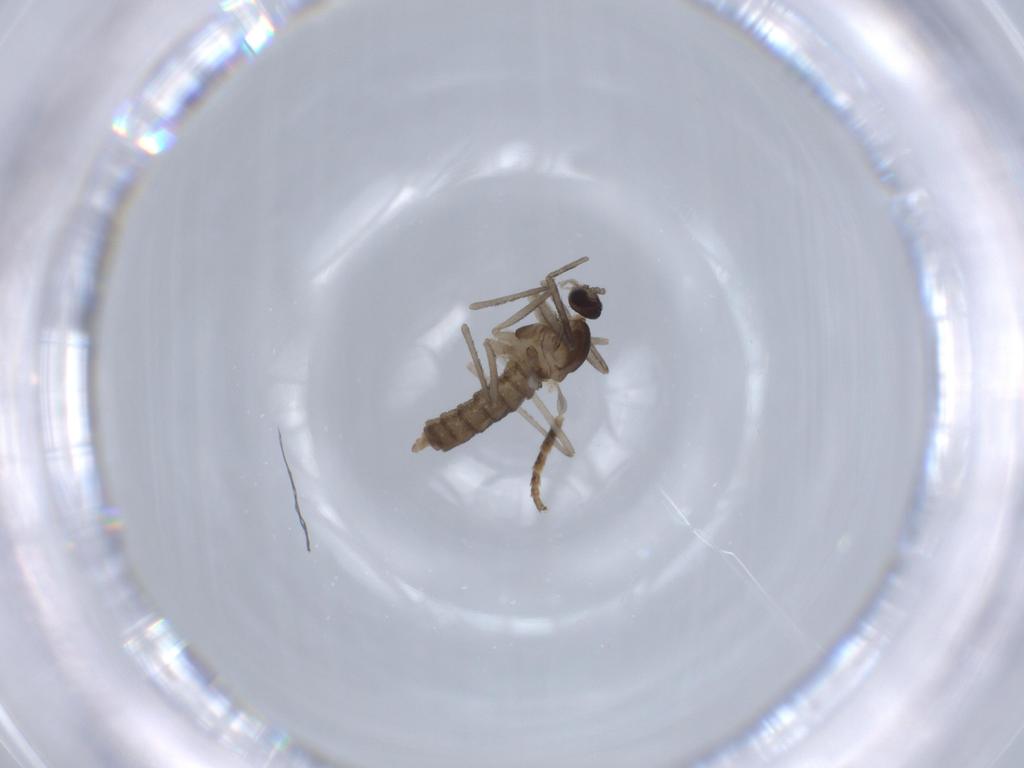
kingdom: Animalia
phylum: Arthropoda
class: Insecta
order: Diptera
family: Cecidomyiidae
